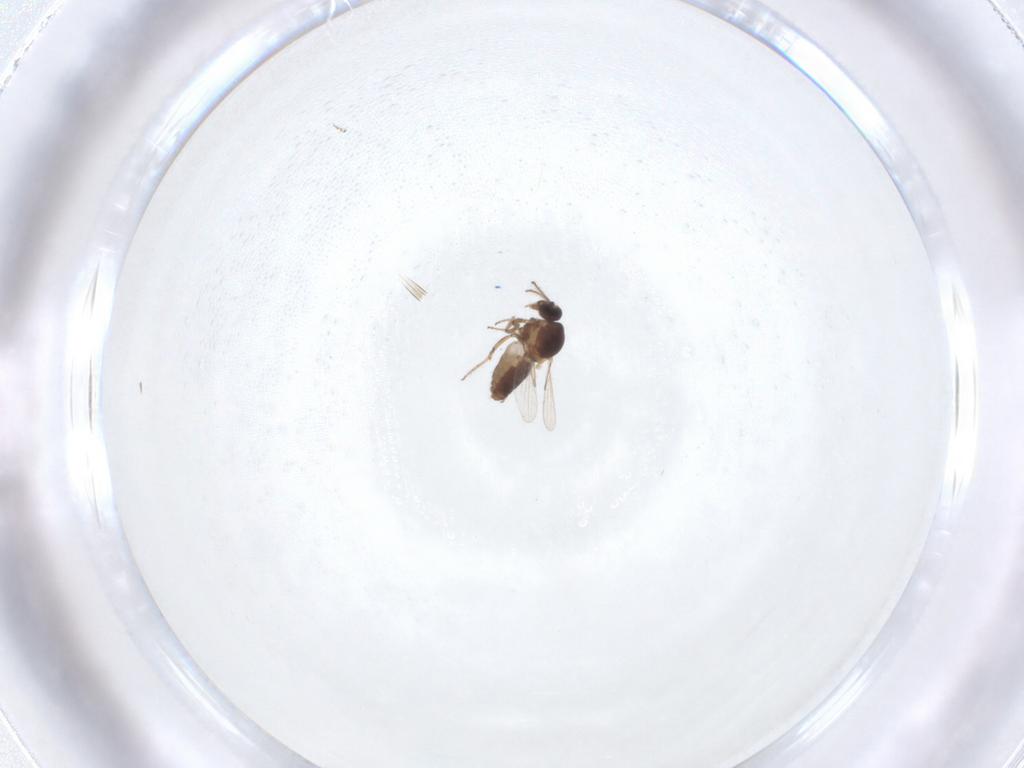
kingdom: Animalia
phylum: Arthropoda
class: Insecta
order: Diptera
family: Ceratopogonidae
